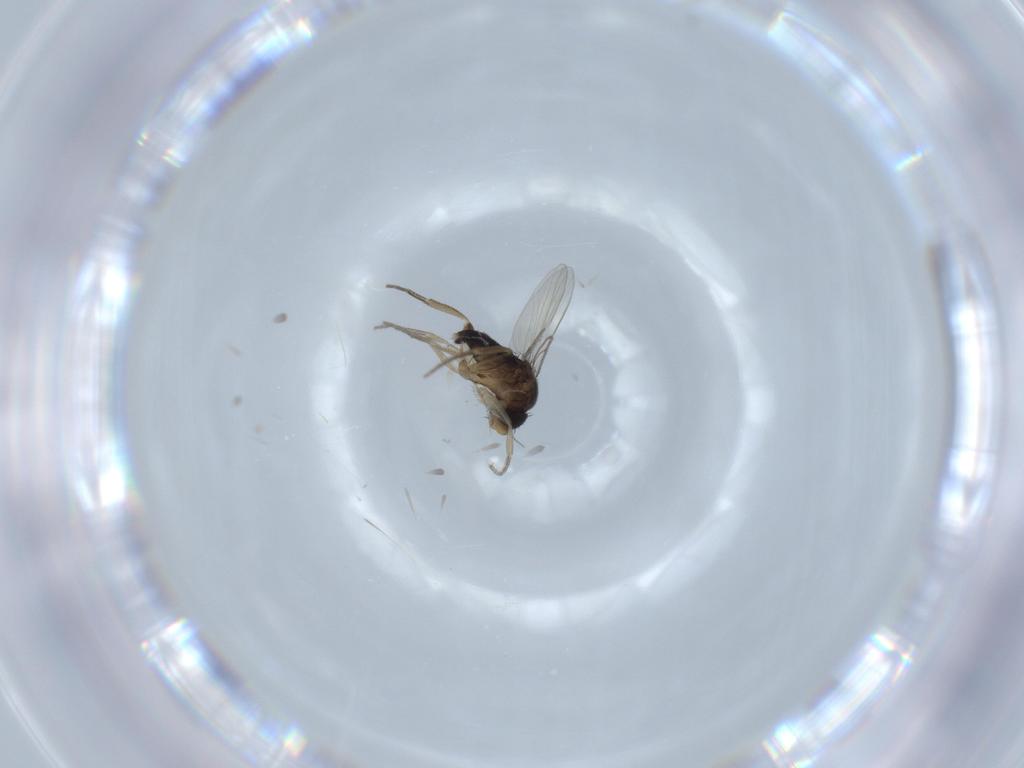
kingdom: Animalia
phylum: Arthropoda
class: Insecta
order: Diptera
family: Phoridae
